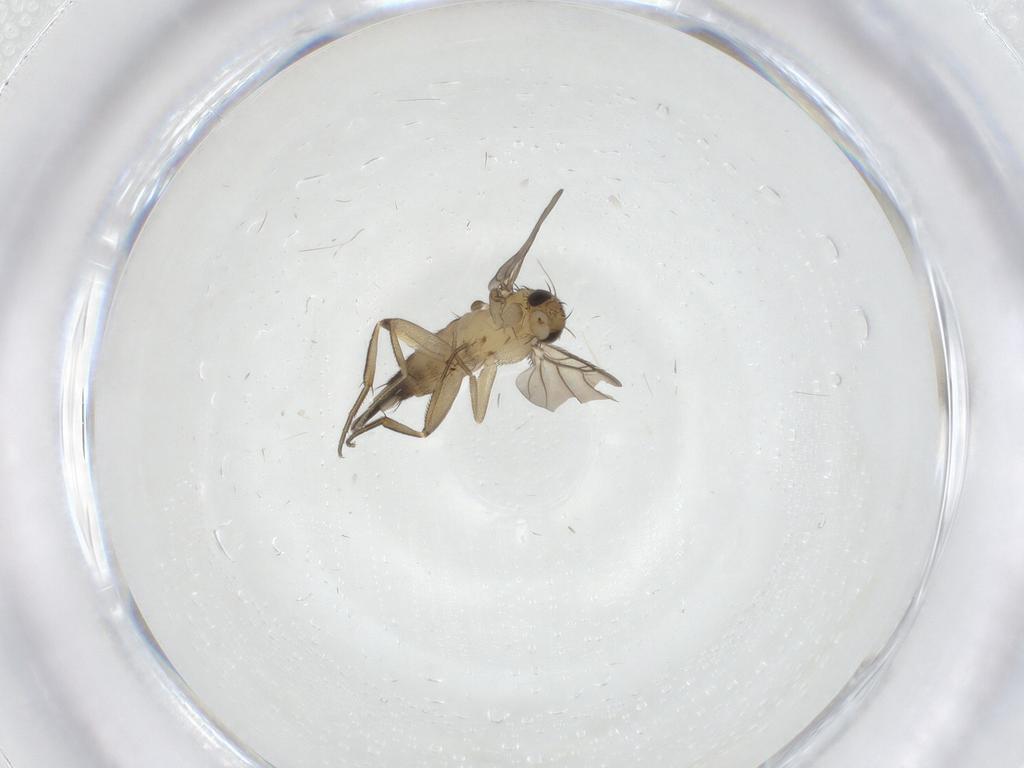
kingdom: Animalia
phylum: Arthropoda
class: Insecta
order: Diptera
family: Phoridae
